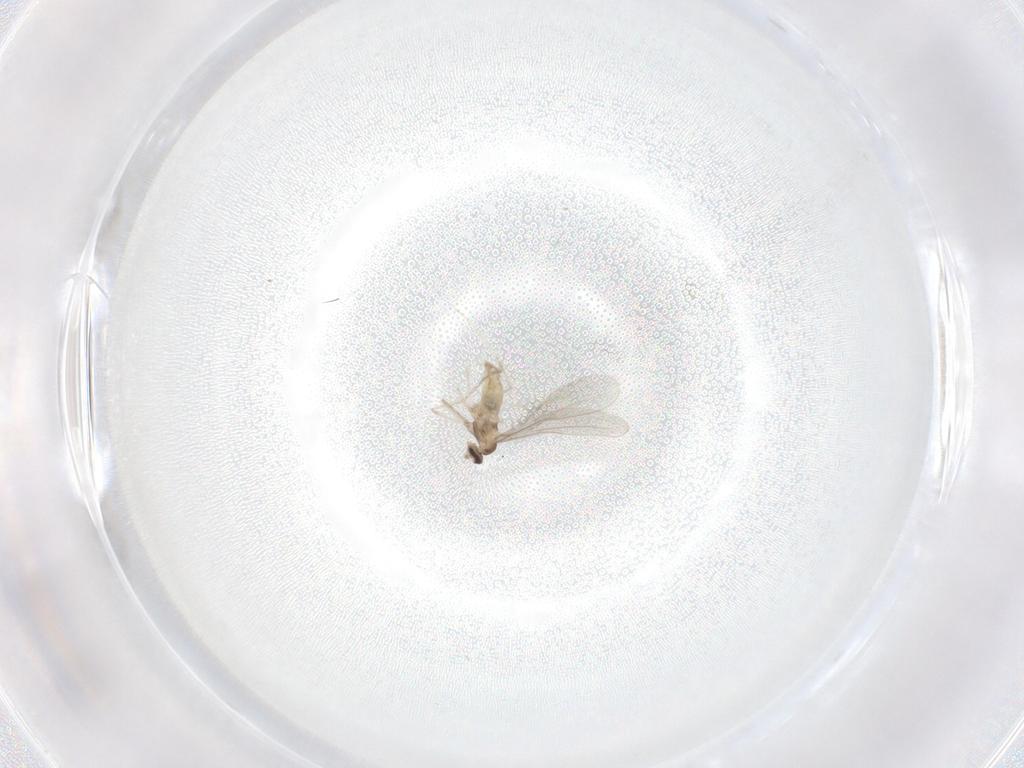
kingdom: Animalia
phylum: Arthropoda
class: Insecta
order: Diptera
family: Cecidomyiidae
